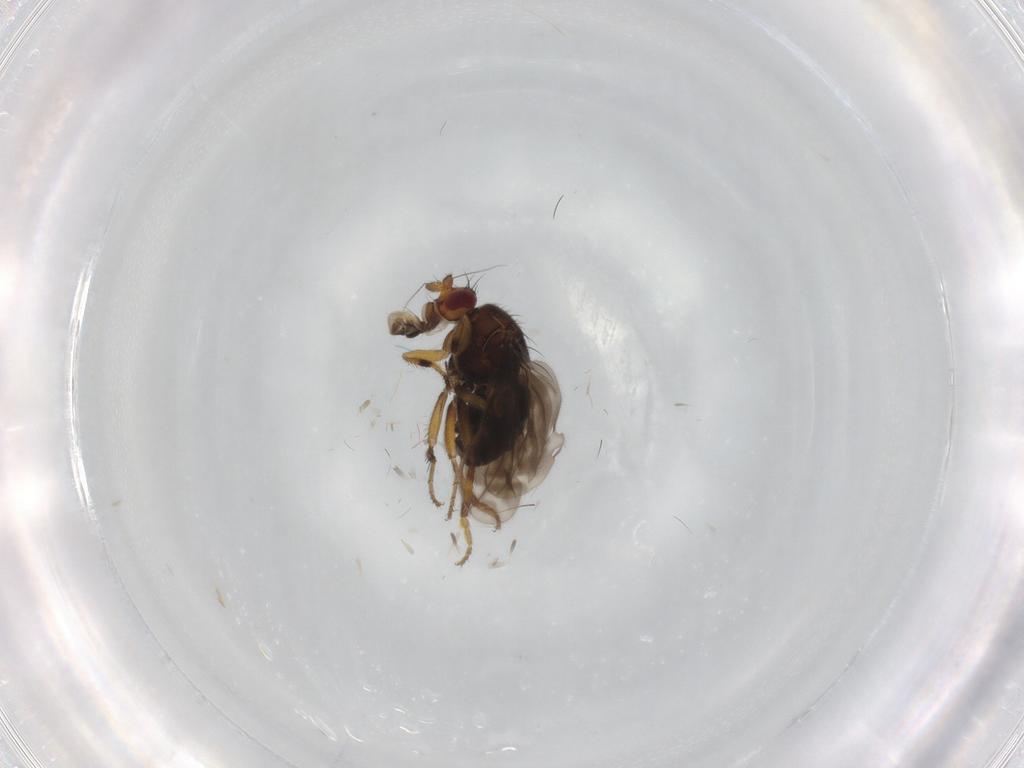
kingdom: Animalia
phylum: Arthropoda
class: Insecta
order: Diptera
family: Sphaeroceridae
